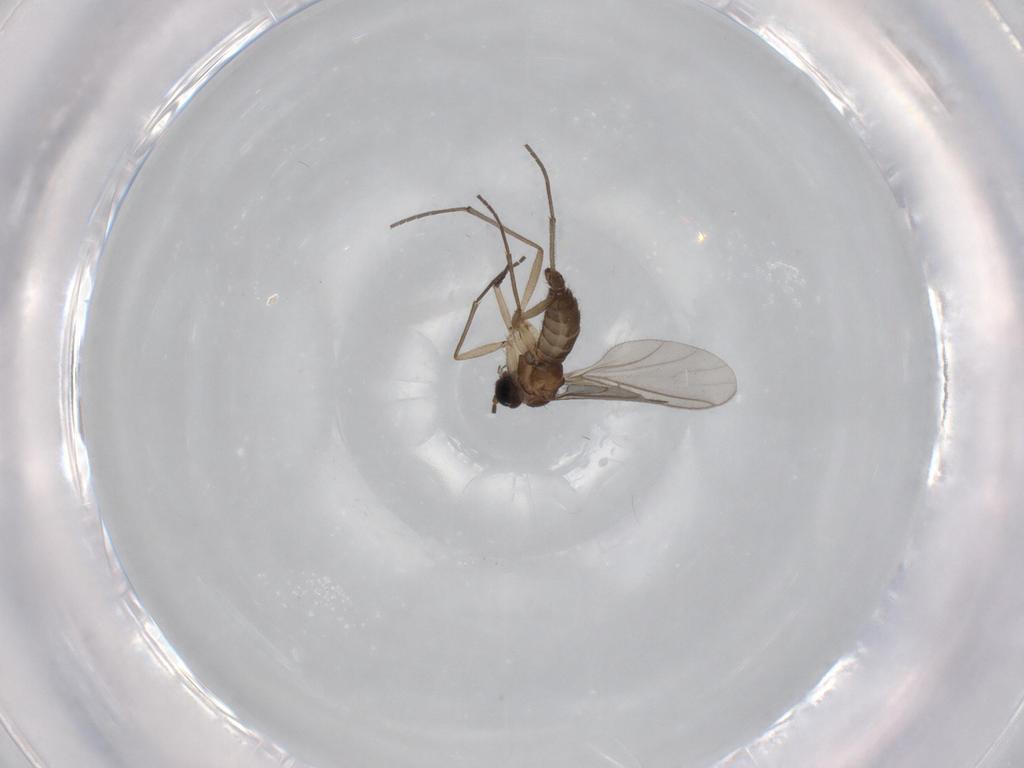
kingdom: Animalia
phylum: Arthropoda
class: Insecta
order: Diptera
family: Sciaridae
